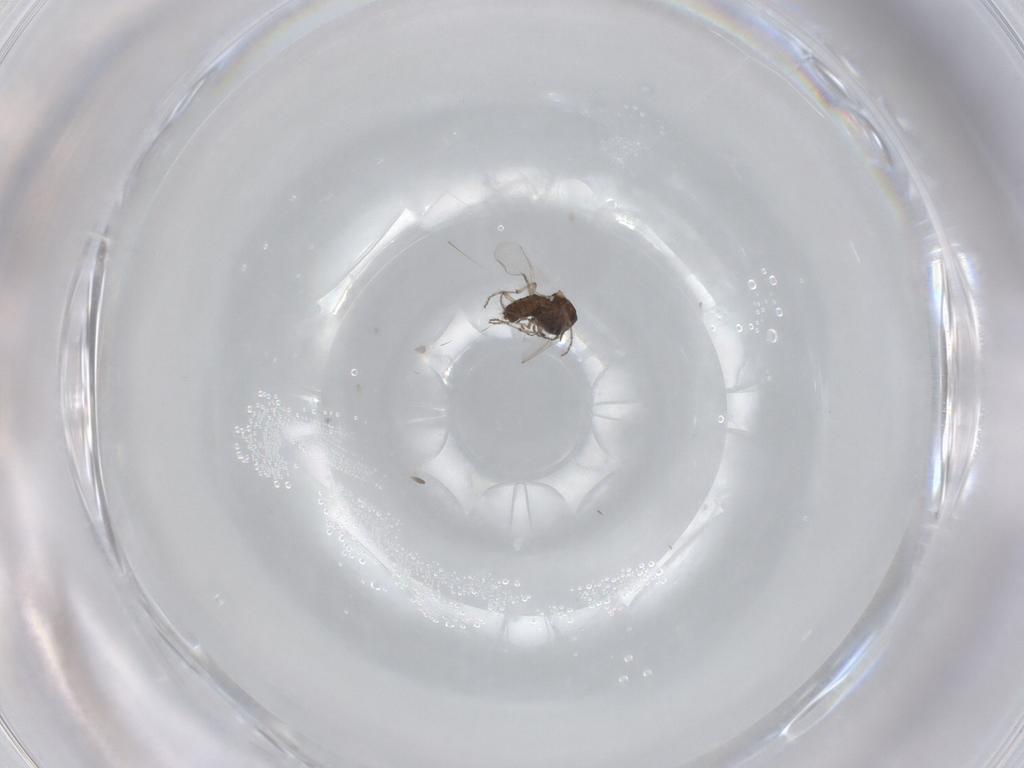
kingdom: Animalia
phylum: Arthropoda
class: Insecta
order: Diptera
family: Ceratopogonidae
